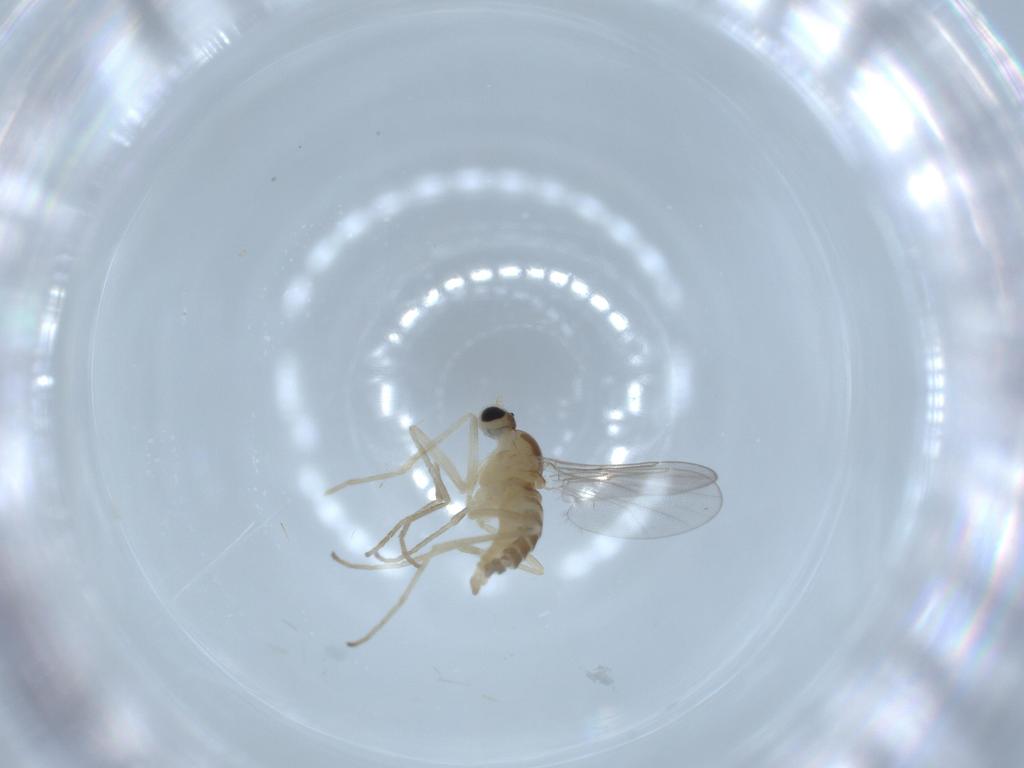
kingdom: Animalia
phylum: Arthropoda
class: Insecta
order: Diptera
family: Cecidomyiidae
